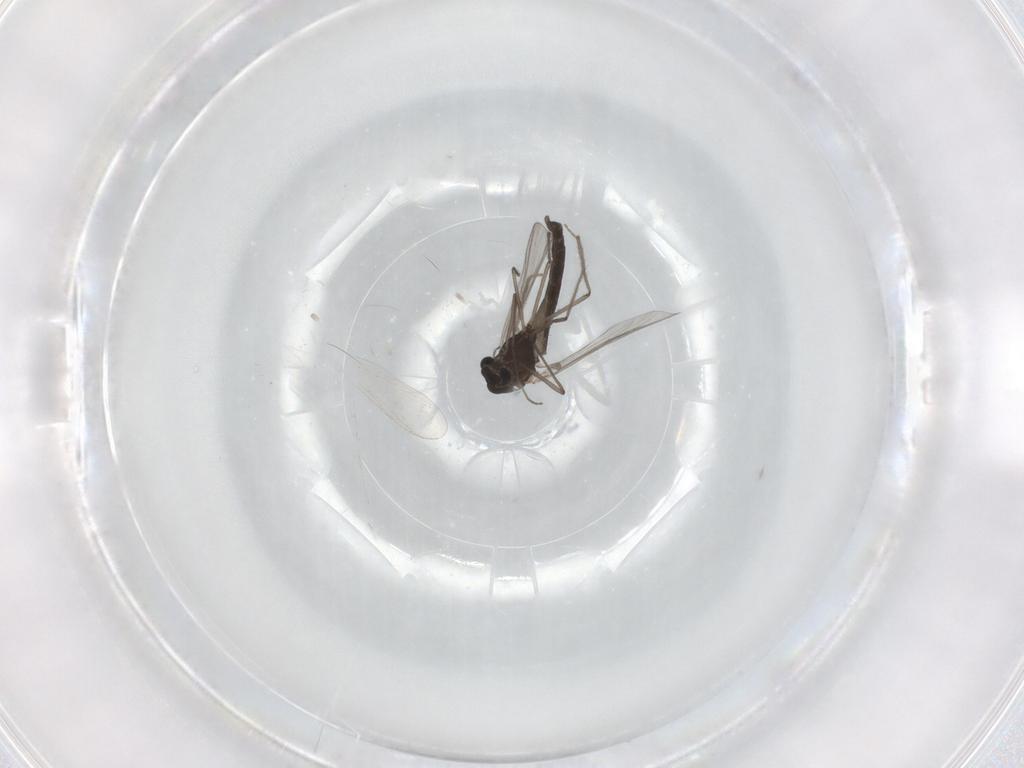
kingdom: Animalia
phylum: Arthropoda
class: Insecta
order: Diptera
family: Chironomidae
